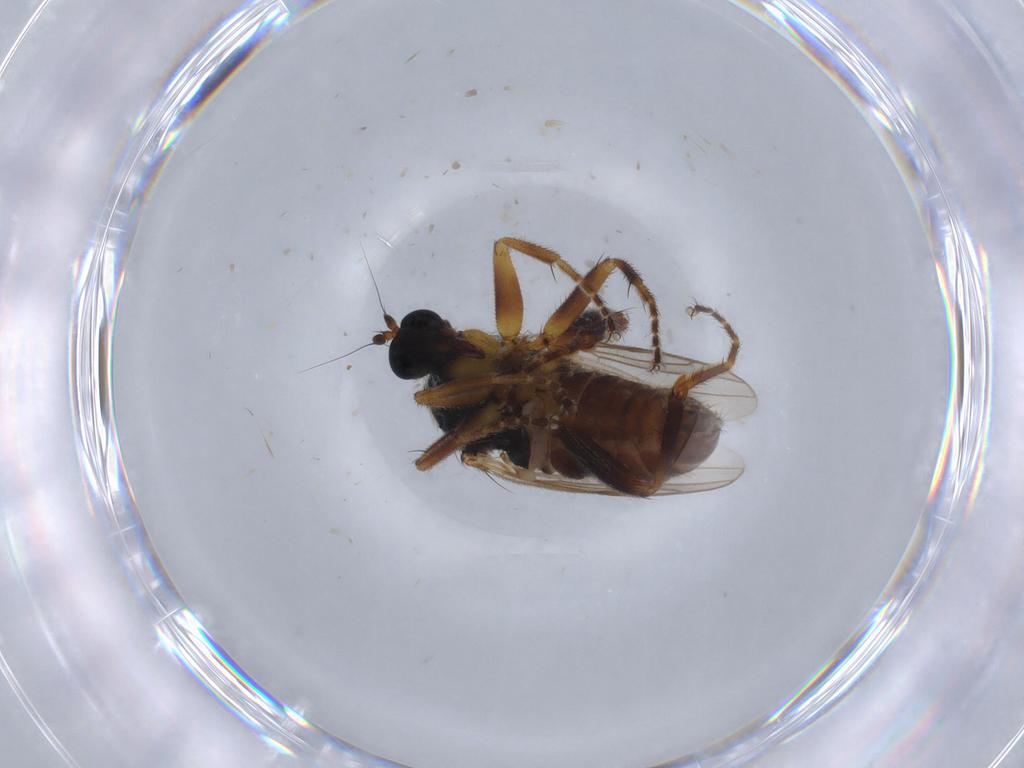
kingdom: Animalia
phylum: Arthropoda
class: Insecta
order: Diptera
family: Hybotidae
